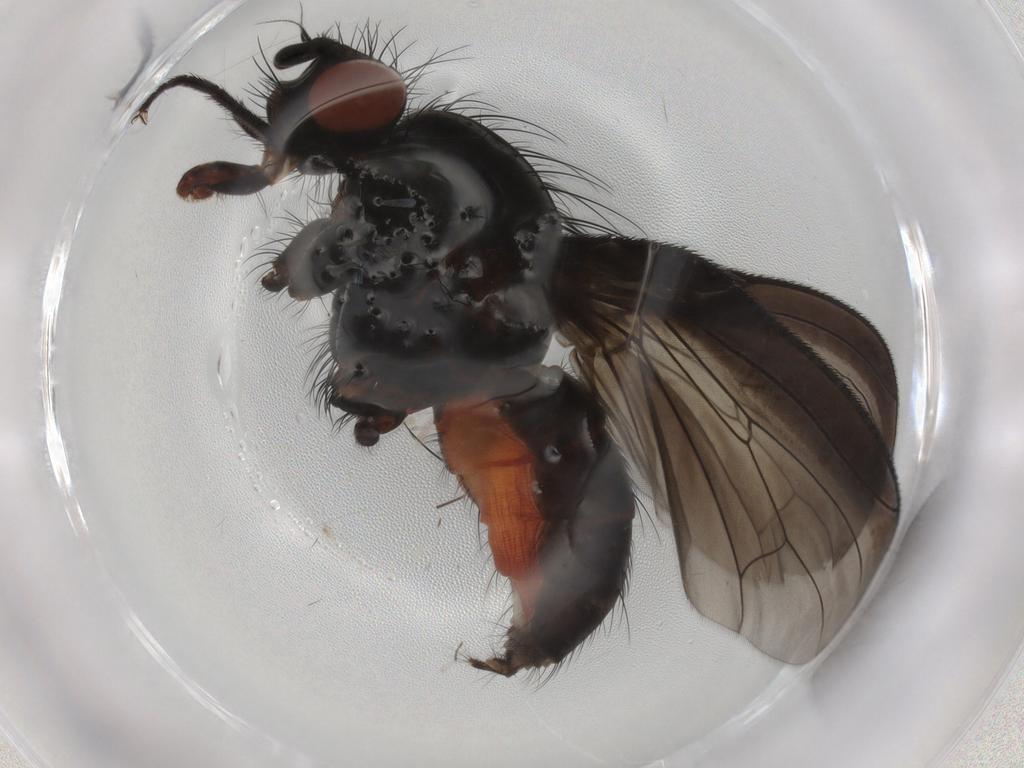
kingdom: Animalia
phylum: Arthropoda
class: Insecta
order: Diptera
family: Anthomyiidae
